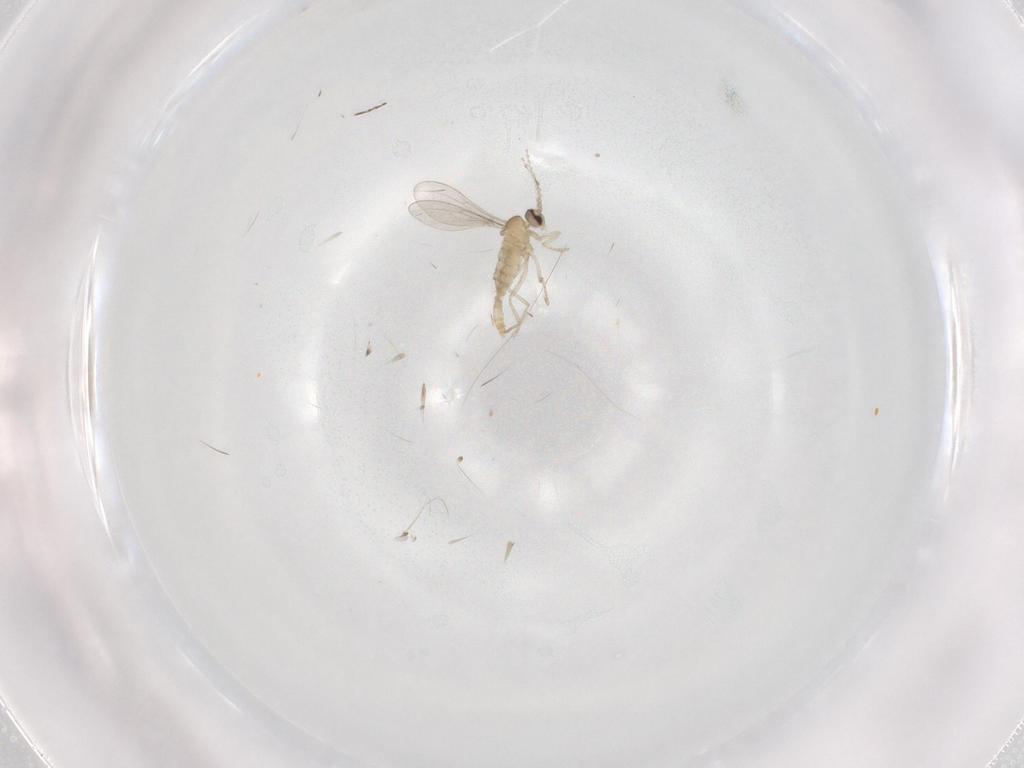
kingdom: Animalia
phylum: Arthropoda
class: Insecta
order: Diptera
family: Cecidomyiidae
